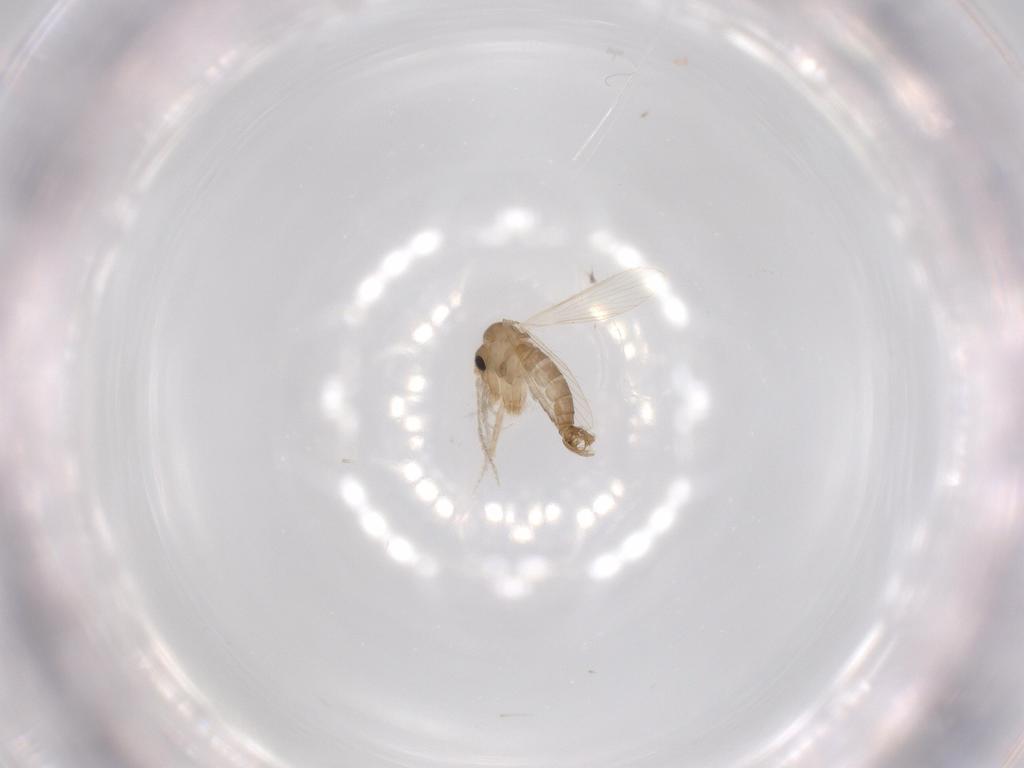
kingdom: Animalia
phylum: Arthropoda
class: Insecta
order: Diptera
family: Psychodidae
